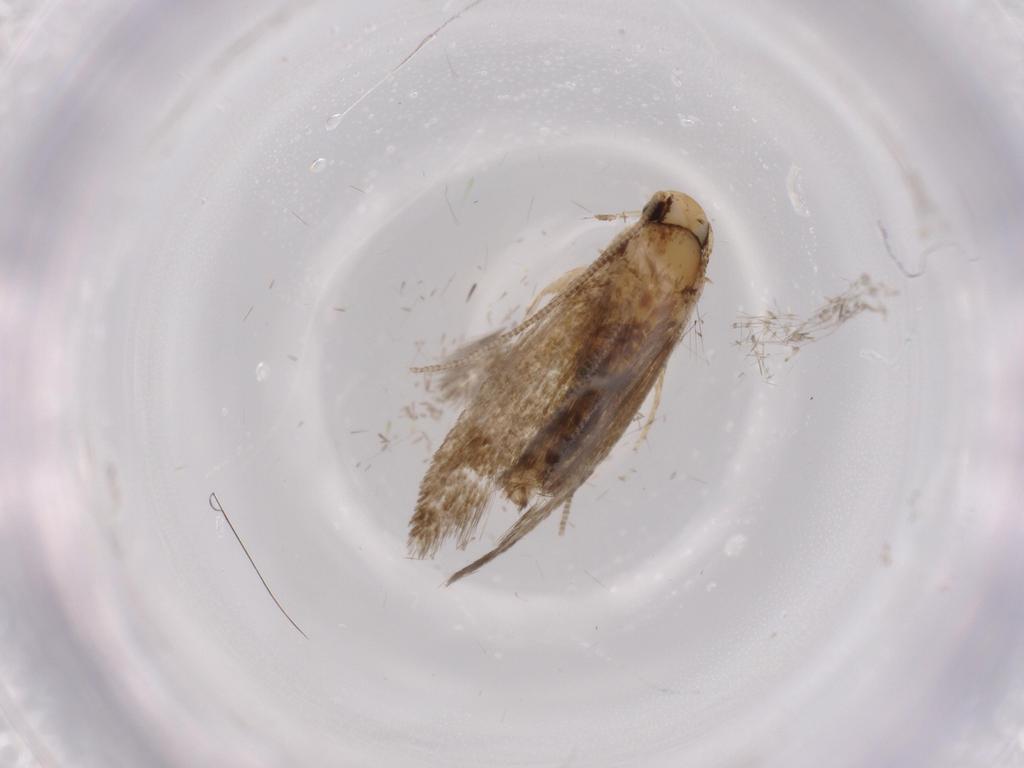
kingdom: Animalia
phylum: Arthropoda
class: Insecta
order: Lepidoptera
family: Tineidae
